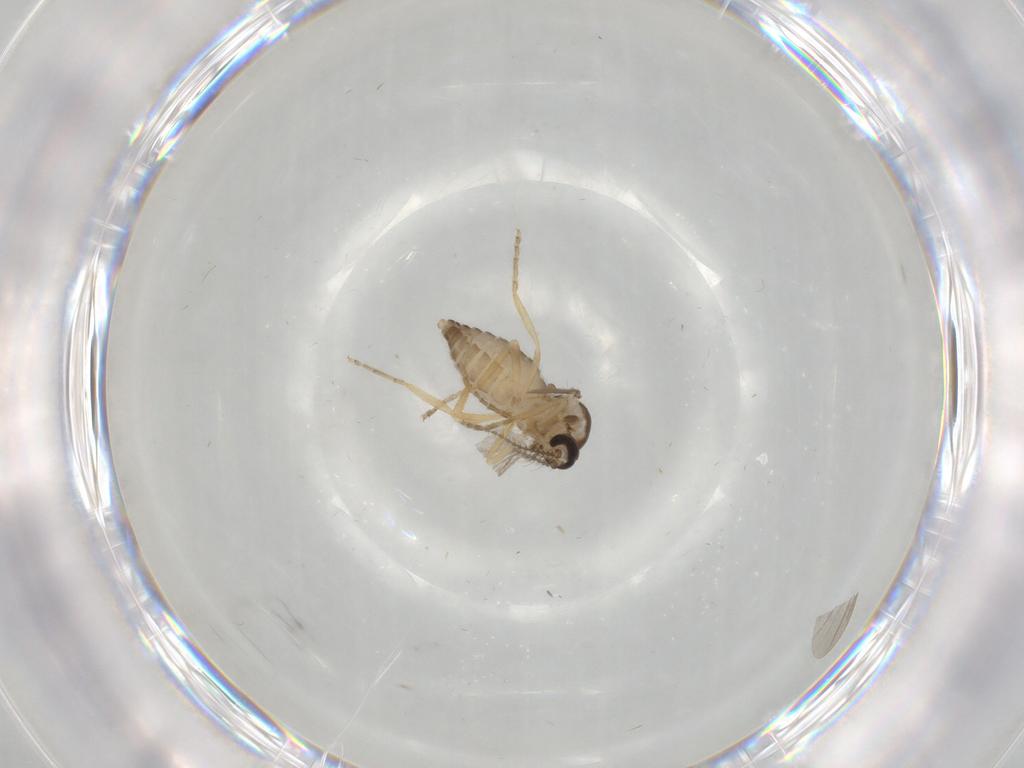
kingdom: Animalia
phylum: Arthropoda
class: Insecta
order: Diptera
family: Ceratopogonidae
